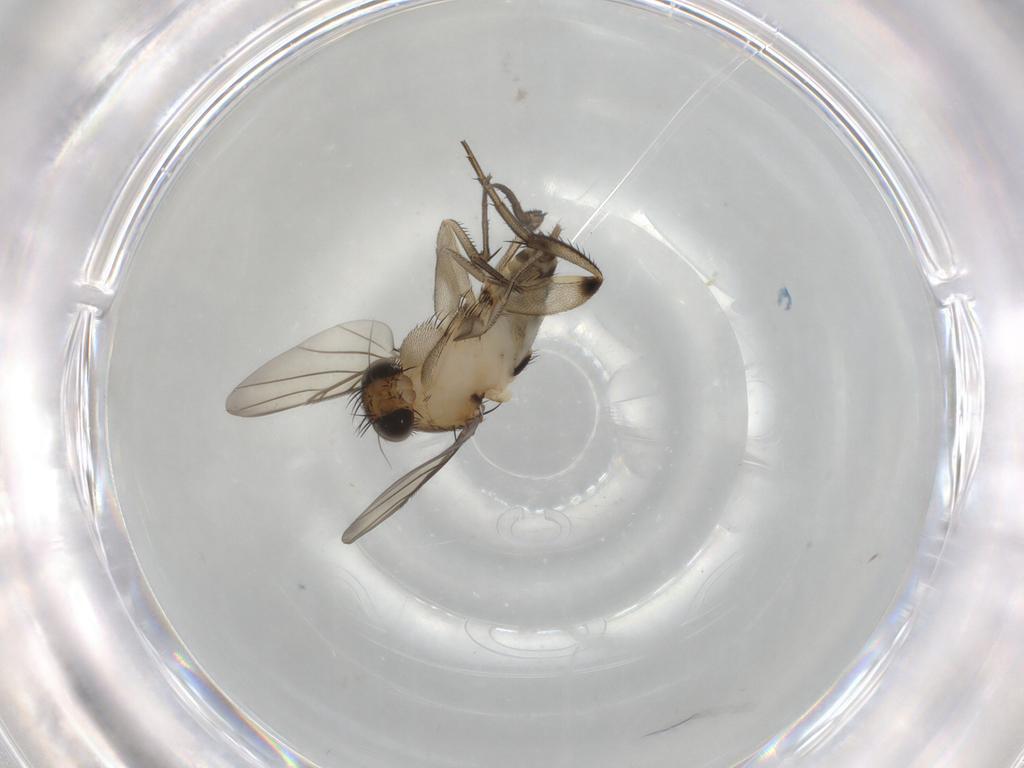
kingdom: Animalia
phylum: Arthropoda
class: Insecta
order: Diptera
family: Phoridae
